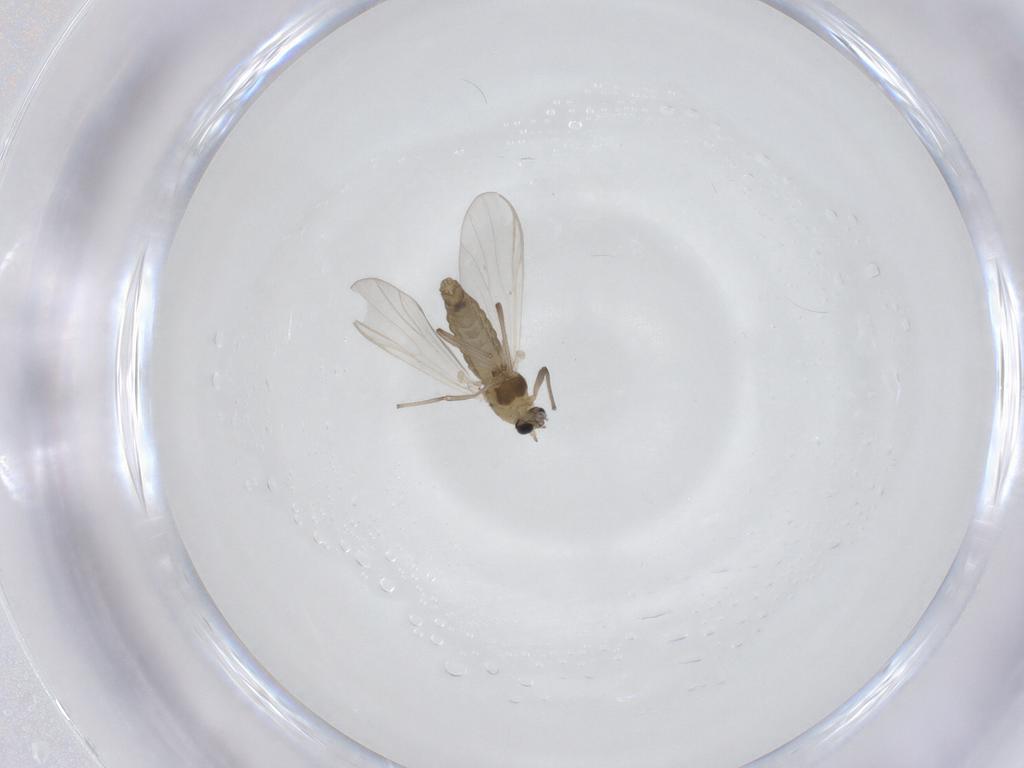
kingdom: Animalia
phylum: Arthropoda
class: Insecta
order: Diptera
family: Chironomidae
